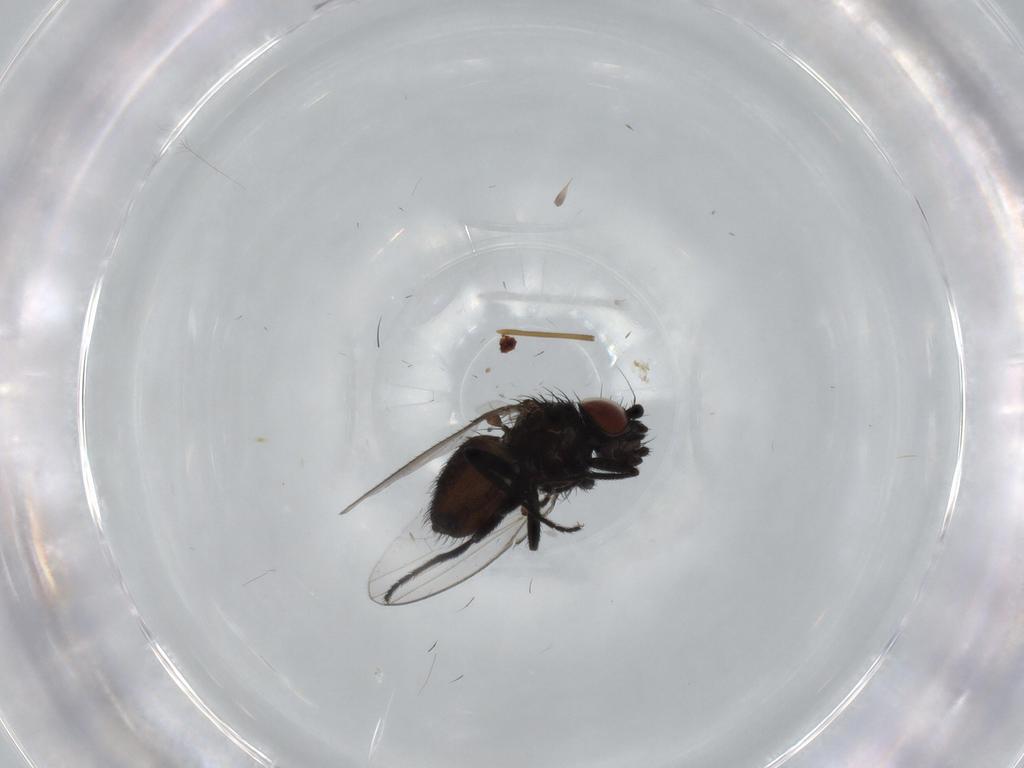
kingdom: Animalia
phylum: Arthropoda
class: Insecta
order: Diptera
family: Milichiidae
